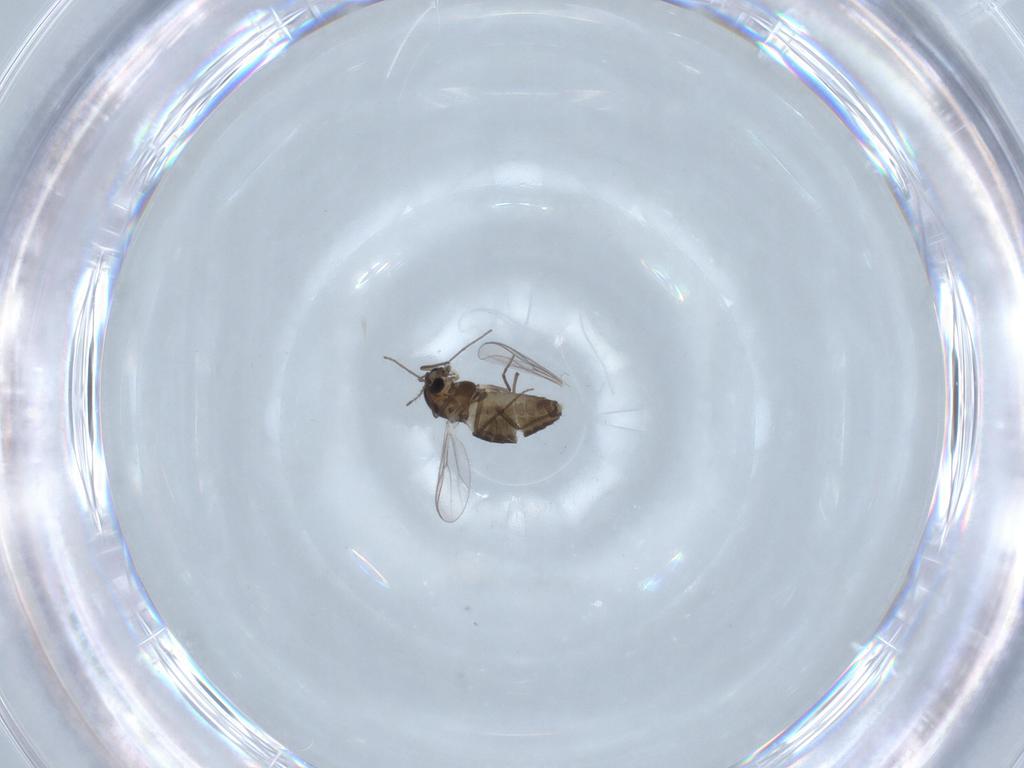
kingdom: Animalia
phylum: Arthropoda
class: Insecta
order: Diptera
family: Chironomidae
